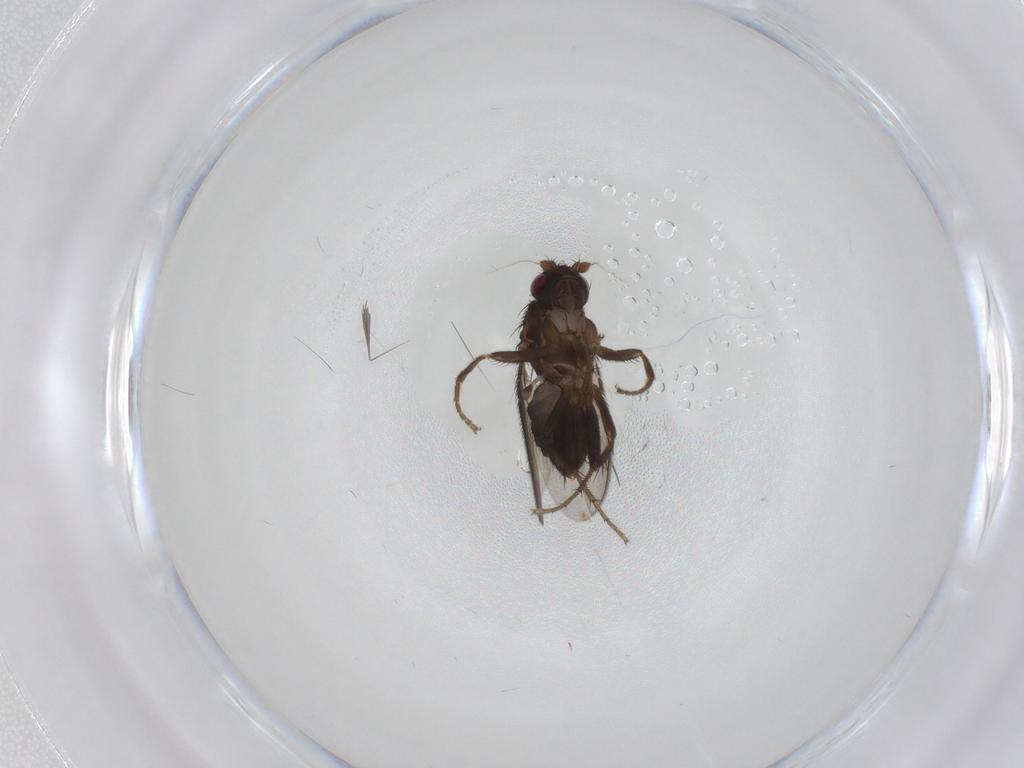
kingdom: Animalia
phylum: Arthropoda
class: Insecta
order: Diptera
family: Sphaeroceridae
